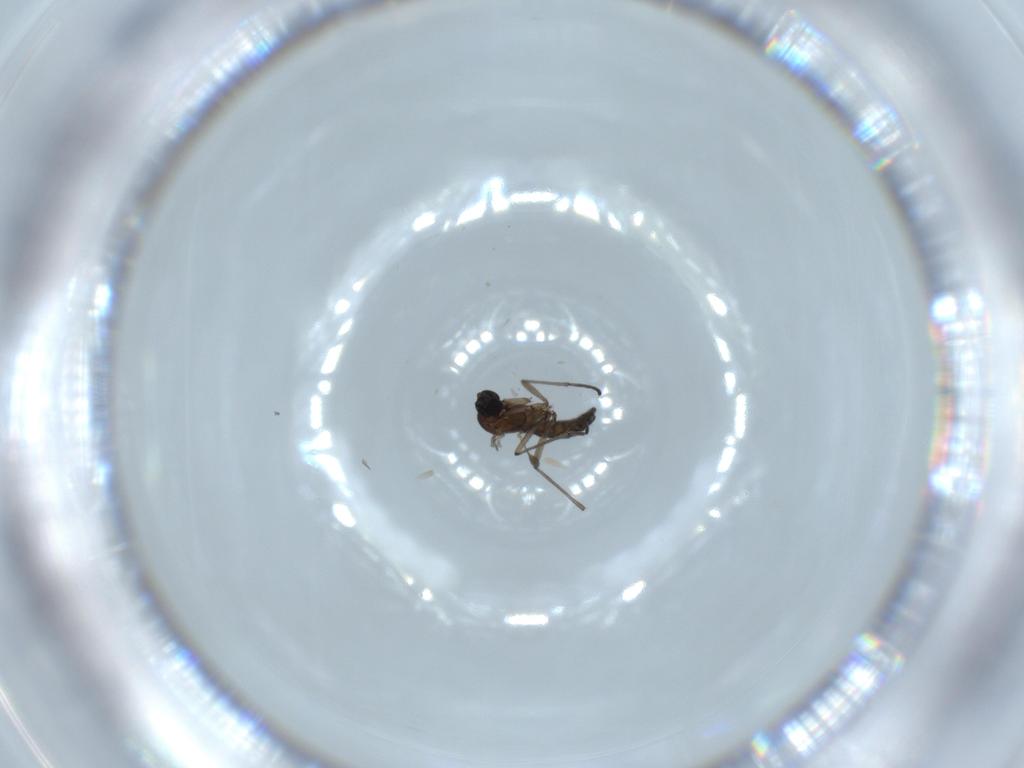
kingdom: Animalia
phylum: Arthropoda
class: Insecta
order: Diptera
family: Sciaridae
